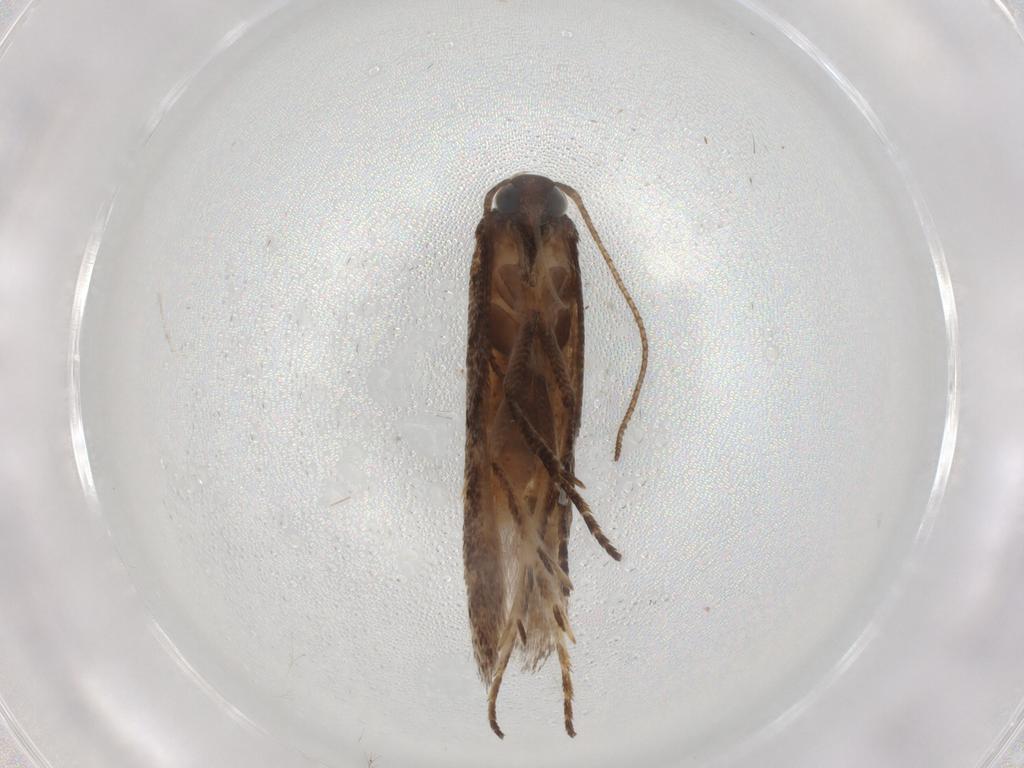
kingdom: Animalia
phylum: Arthropoda
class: Insecta
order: Lepidoptera
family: Gelechiidae
